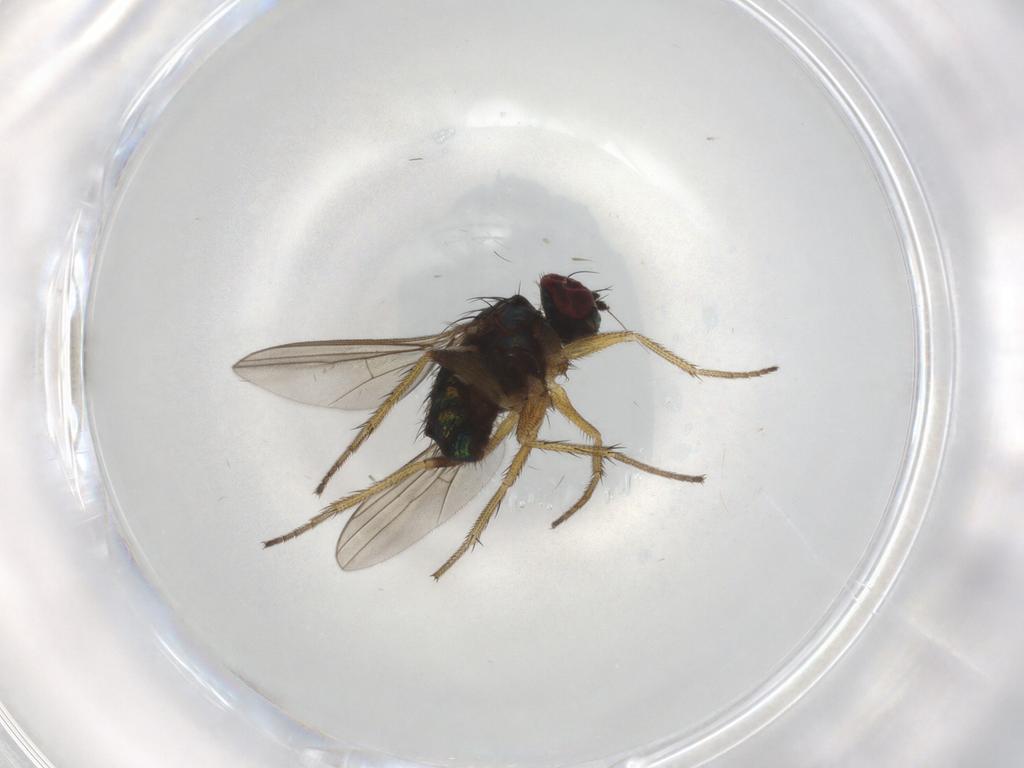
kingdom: Animalia
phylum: Arthropoda
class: Insecta
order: Diptera
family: Dolichopodidae
